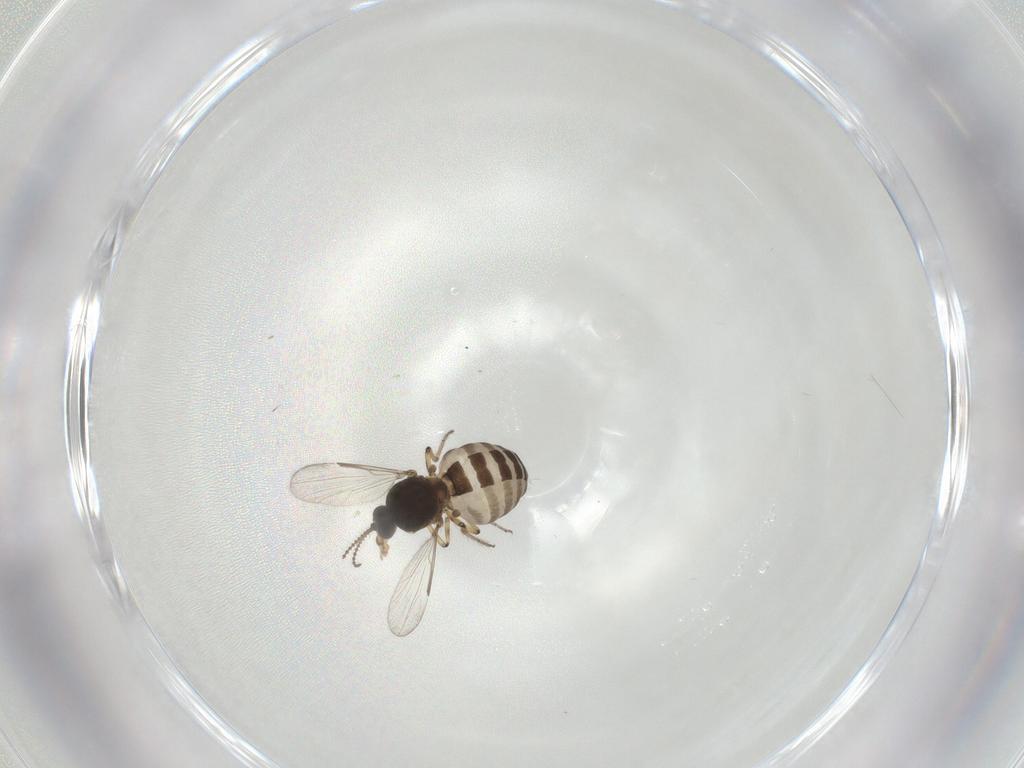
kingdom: Animalia
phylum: Arthropoda
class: Insecta
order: Diptera
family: Ceratopogonidae
